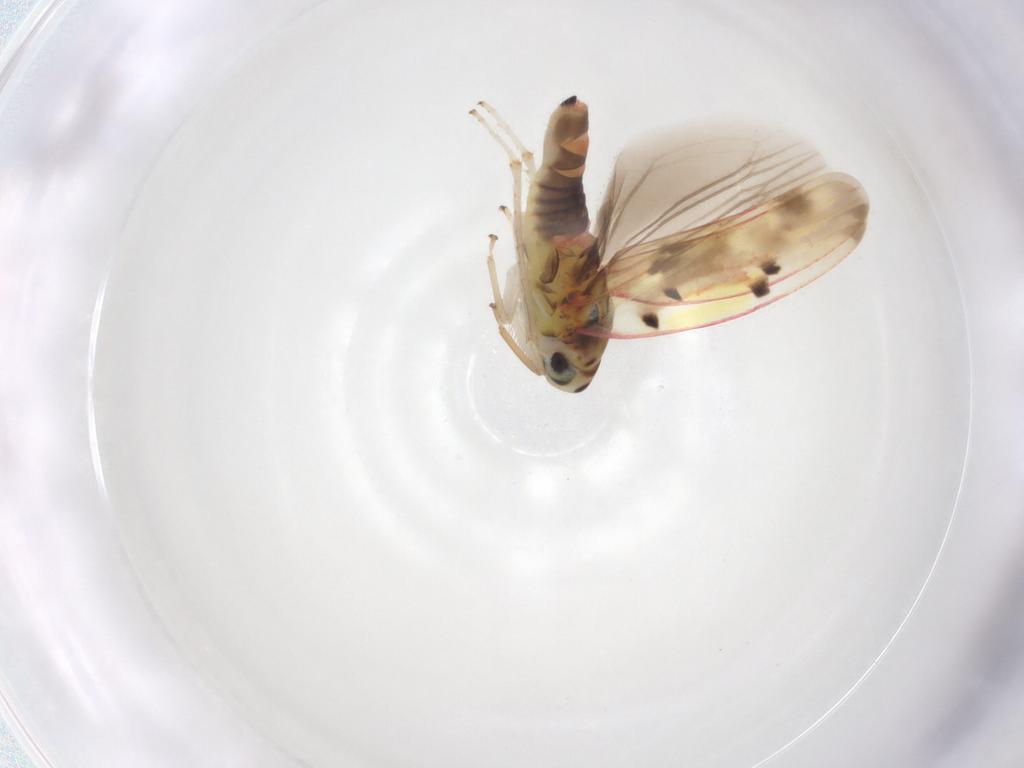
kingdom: Animalia
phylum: Arthropoda
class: Insecta
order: Hemiptera
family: Cicadellidae
